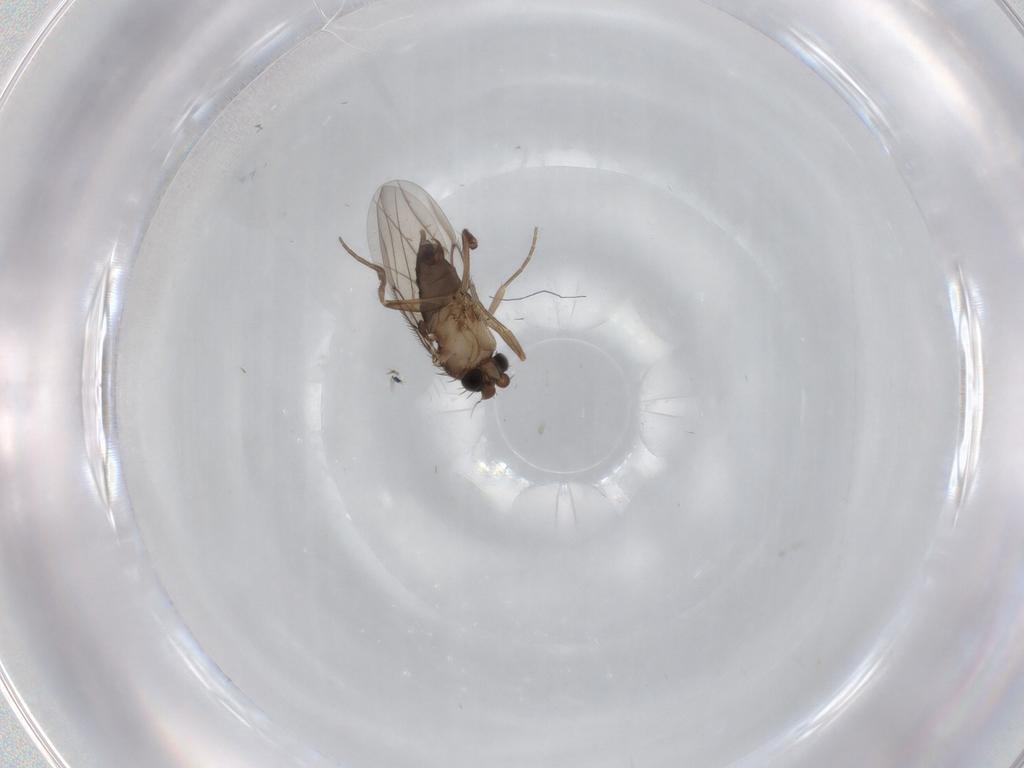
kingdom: Animalia
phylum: Arthropoda
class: Insecta
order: Diptera
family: Phoridae
